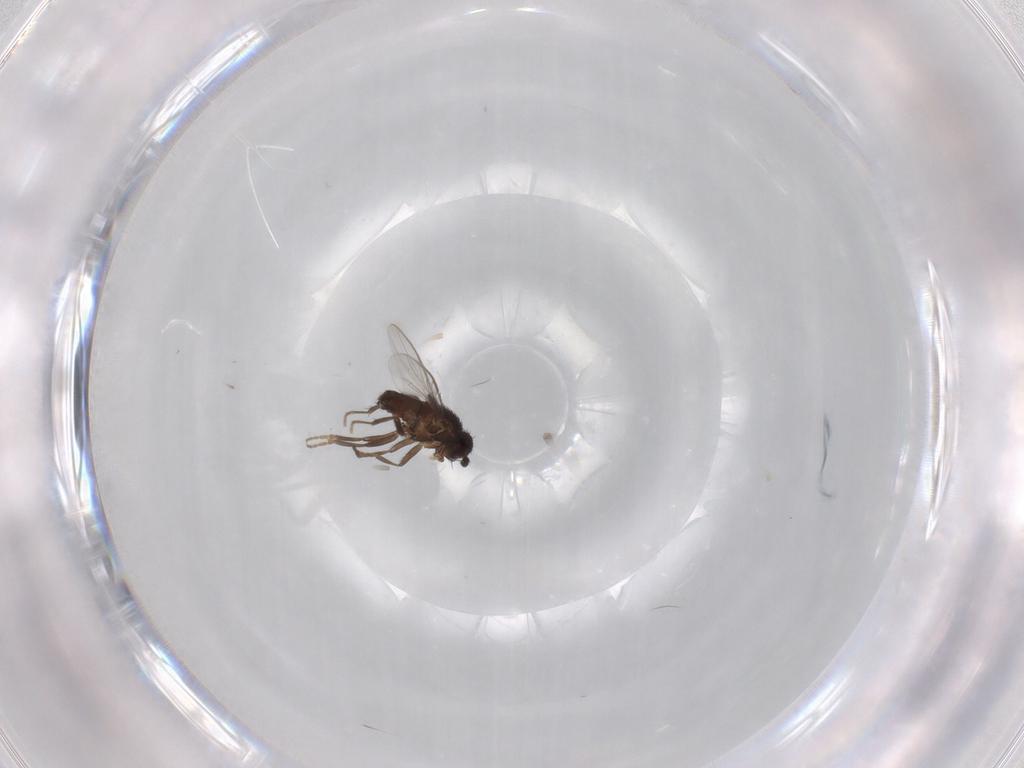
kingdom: Animalia
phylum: Arthropoda
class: Insecta
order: Diptera
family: Sphaeroceridae
